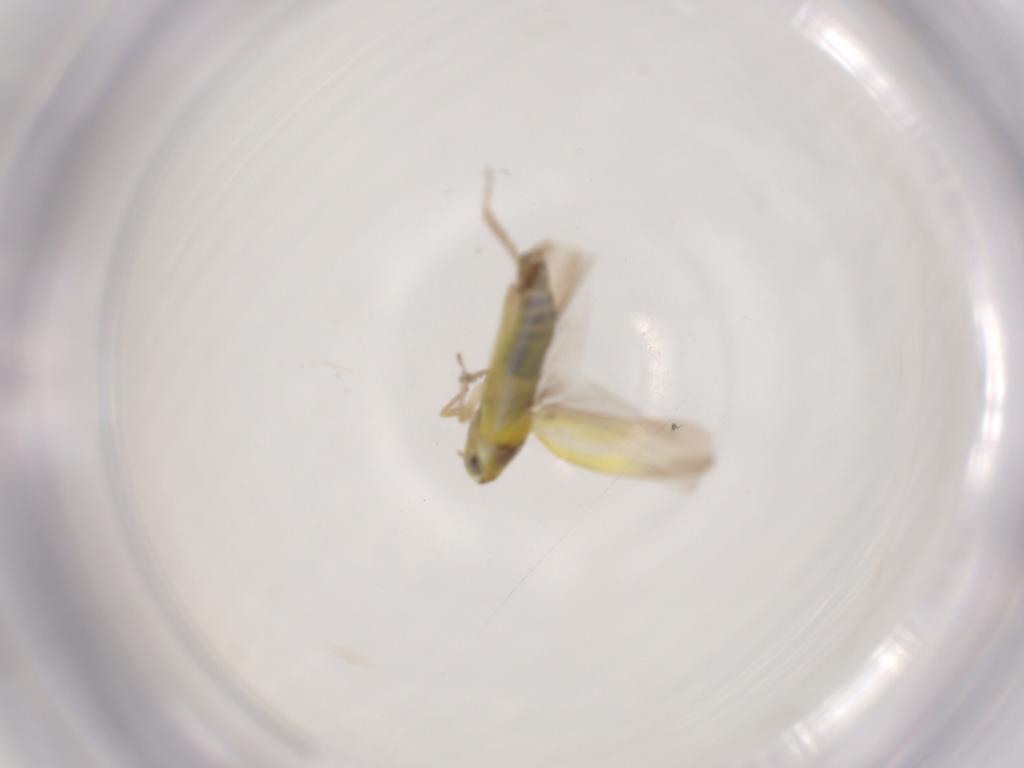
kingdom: Animalia
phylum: Arthropoda
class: Insecta
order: Hemiptera
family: Cicadellidae
